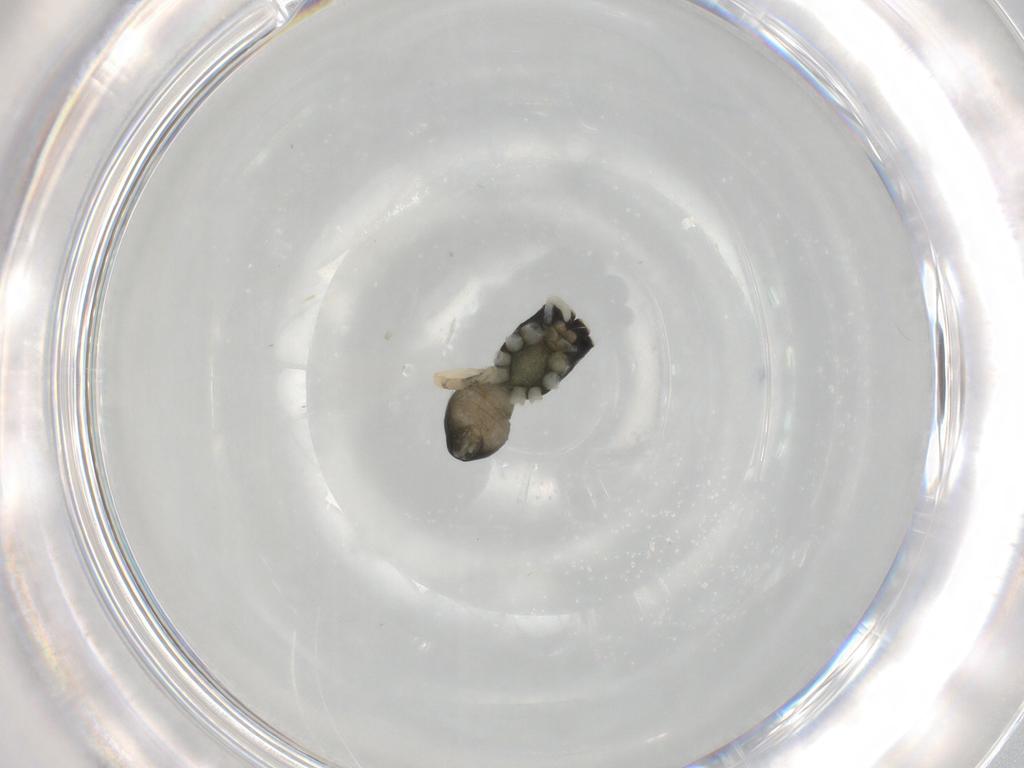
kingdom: Animalia
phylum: Arthropoda
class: Arachnida
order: Araneae
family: Salticidae
